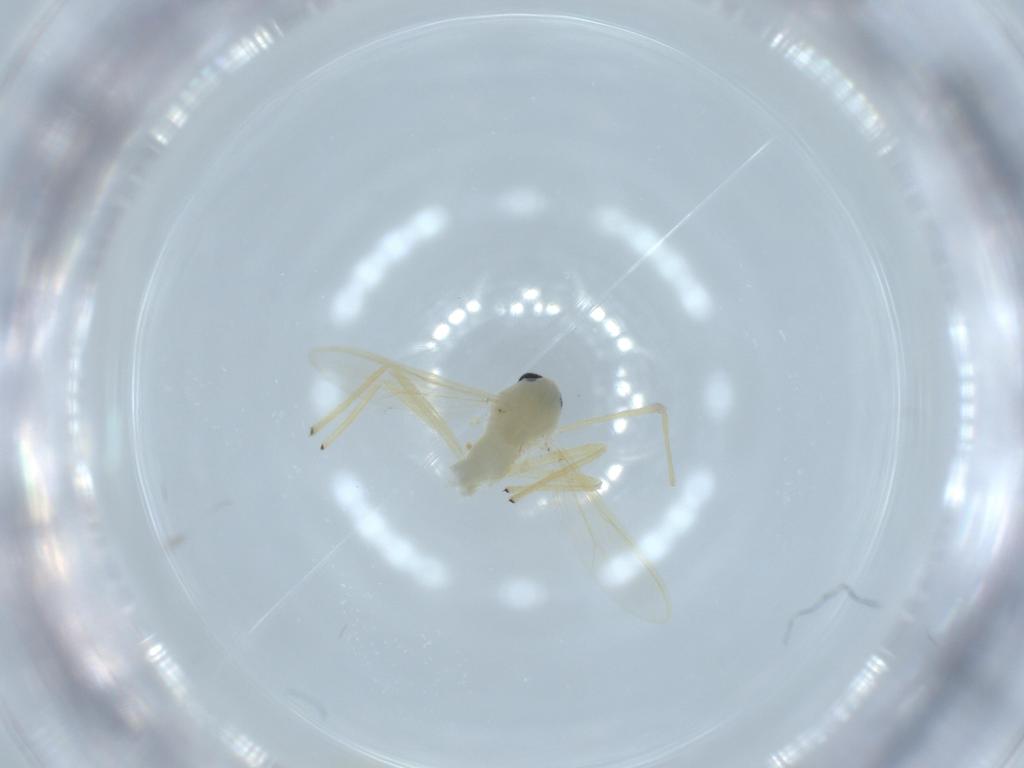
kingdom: Animalia
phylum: Arthropoda
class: Insecta
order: Diptera
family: Chironomidae
